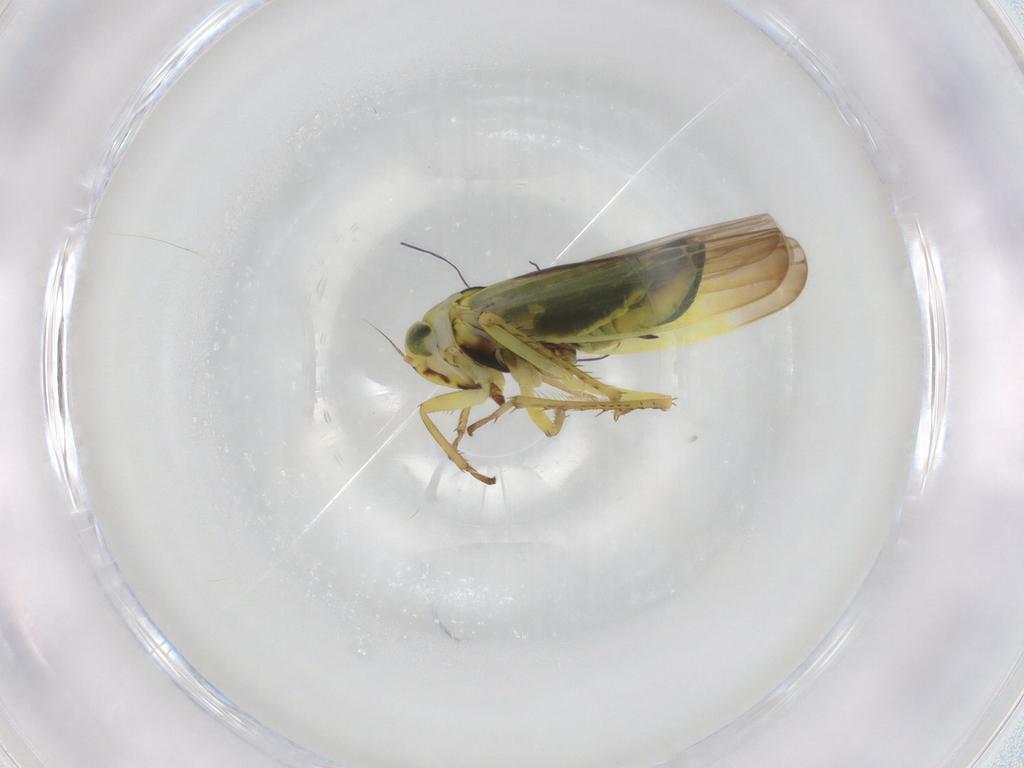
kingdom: Animalia
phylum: Arthropoda
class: Insecta
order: Hemiptera
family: Cicadellidae
